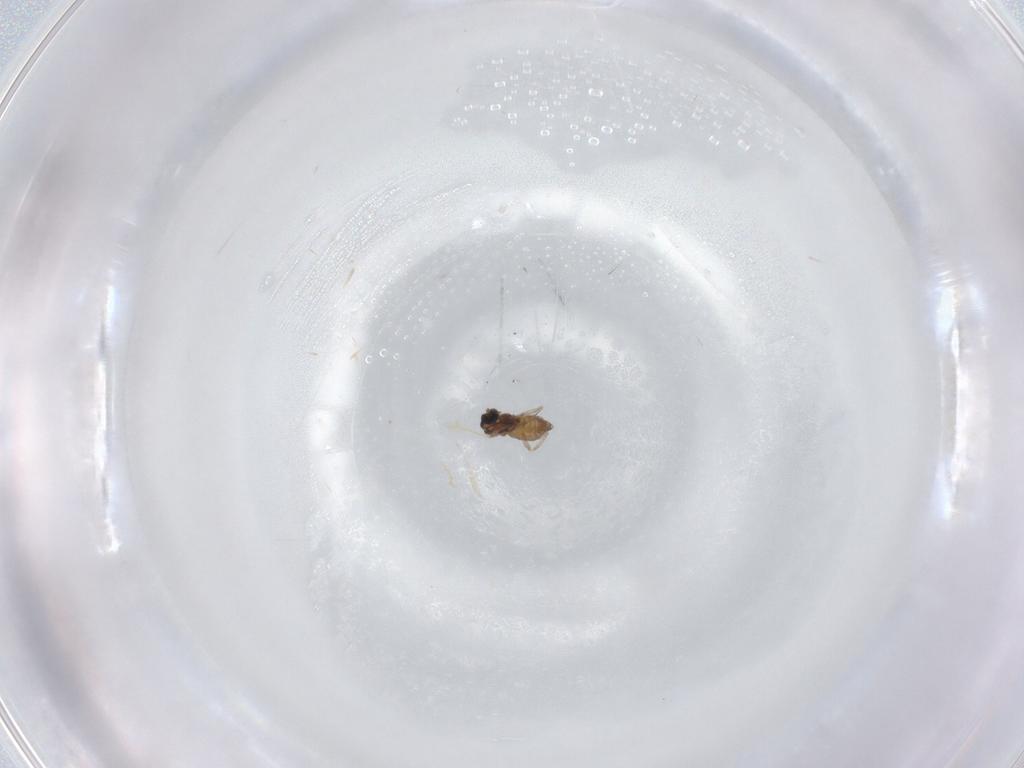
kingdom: Animalia
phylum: Arthropoda
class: Insecta
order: Diptera
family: Cecidomyiidae
